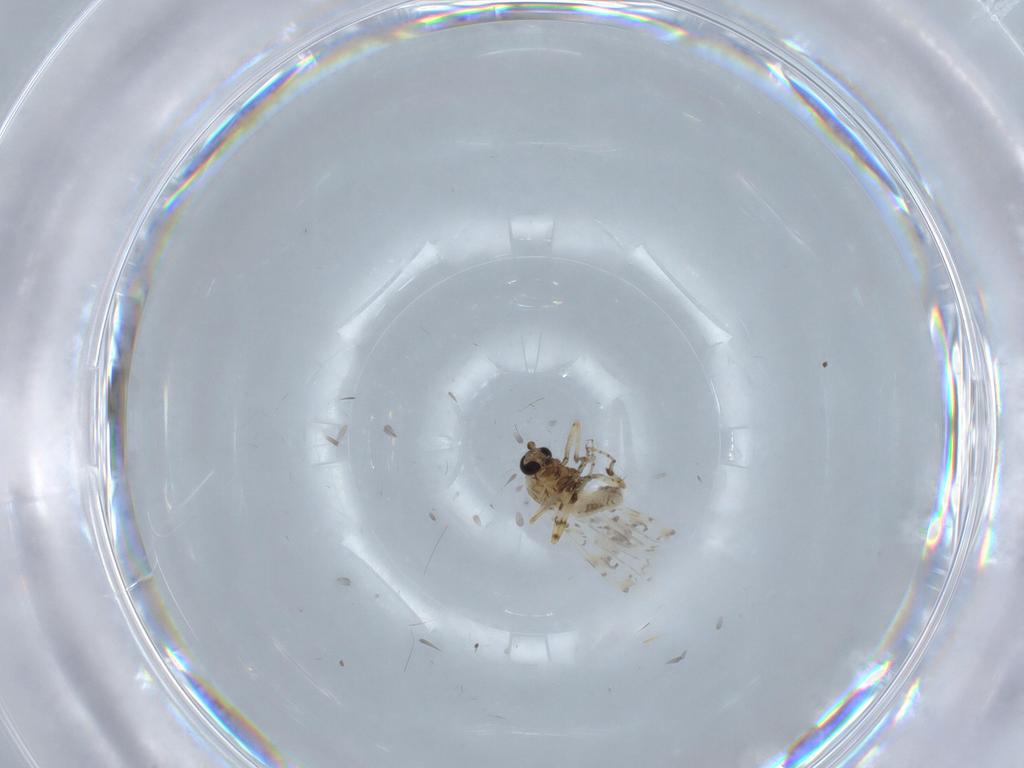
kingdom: Animalia
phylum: Arthropoda
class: Insecta
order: Diptera
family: Ceratopogonidae
